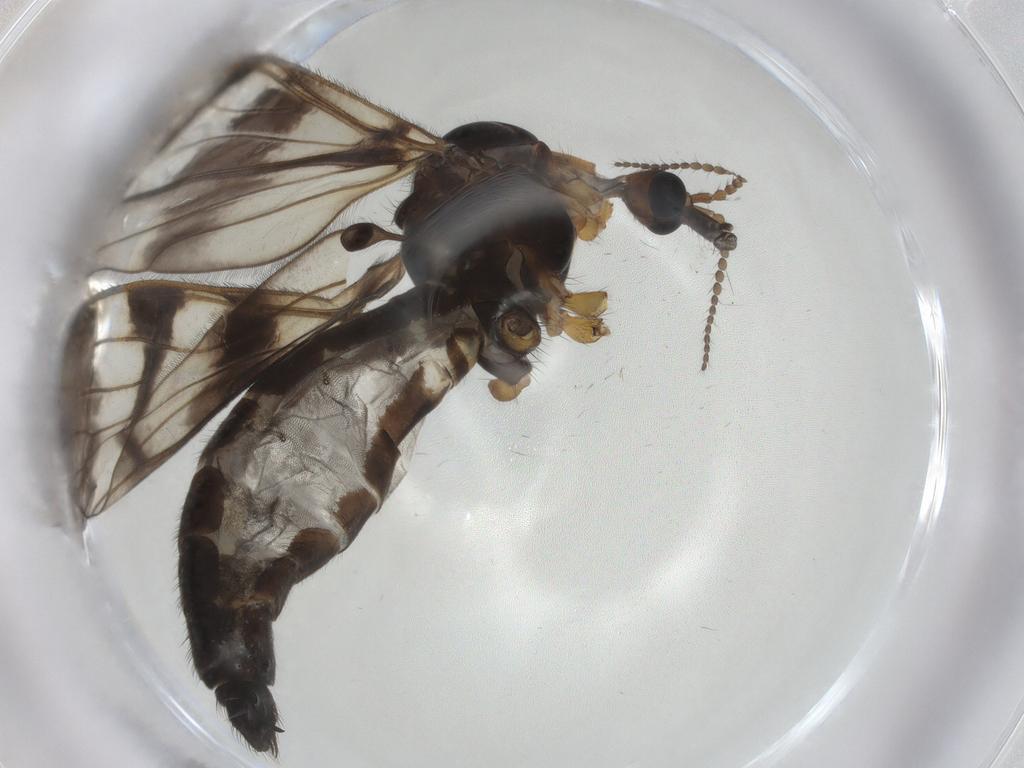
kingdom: Animalia
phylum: Arthropoda
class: Insecta
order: Diptera
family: Limoniidae
